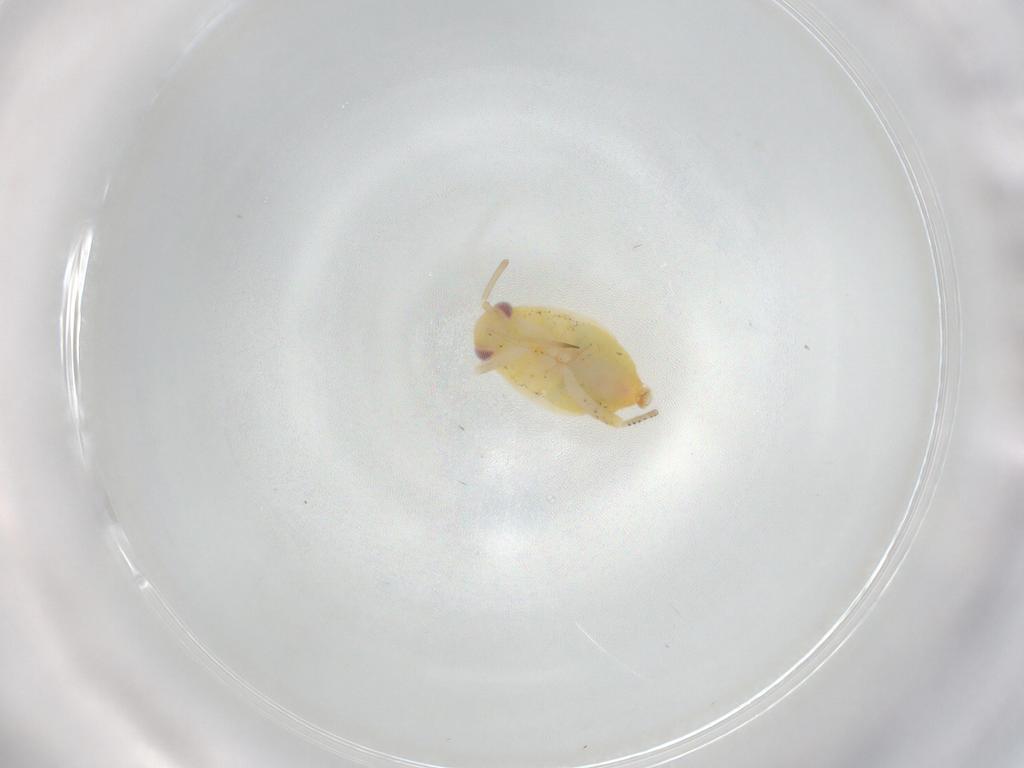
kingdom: Animalia
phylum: Arthropoda
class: Insecta
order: Hemiptera
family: Miridae
